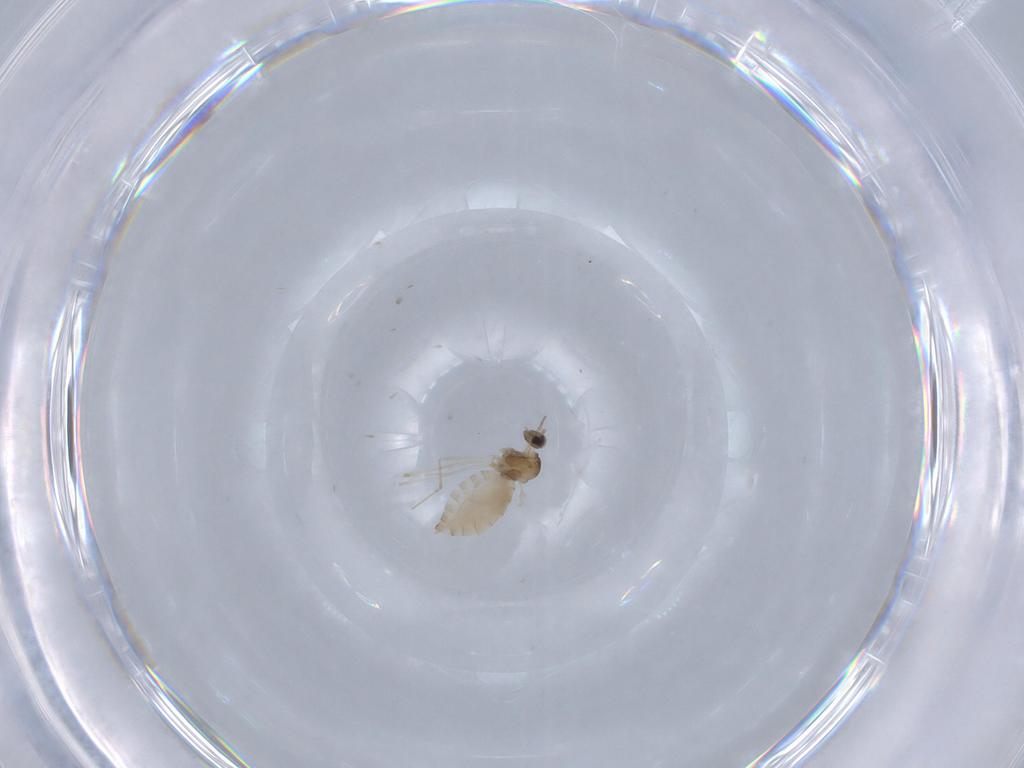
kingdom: Animalia
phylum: Arthropoda
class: Insecta
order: Diptera
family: Cecidomyiidae
